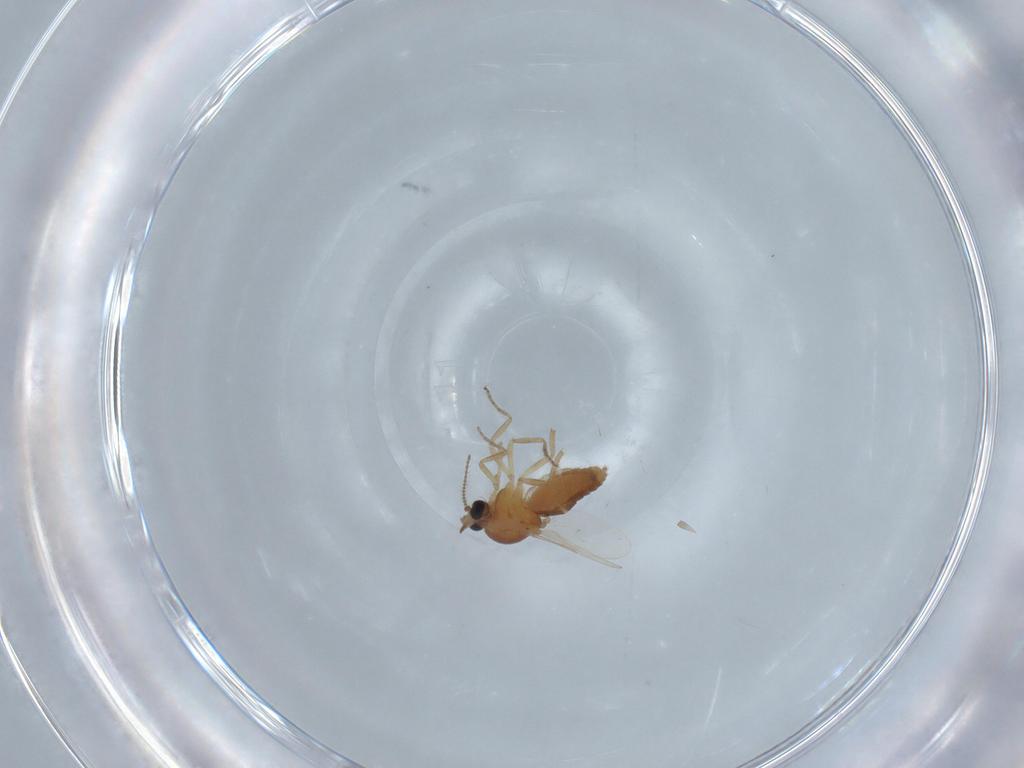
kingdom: Animalia
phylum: Arthropoda
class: Insecta
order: Diptera
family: Ceratopogonidae
